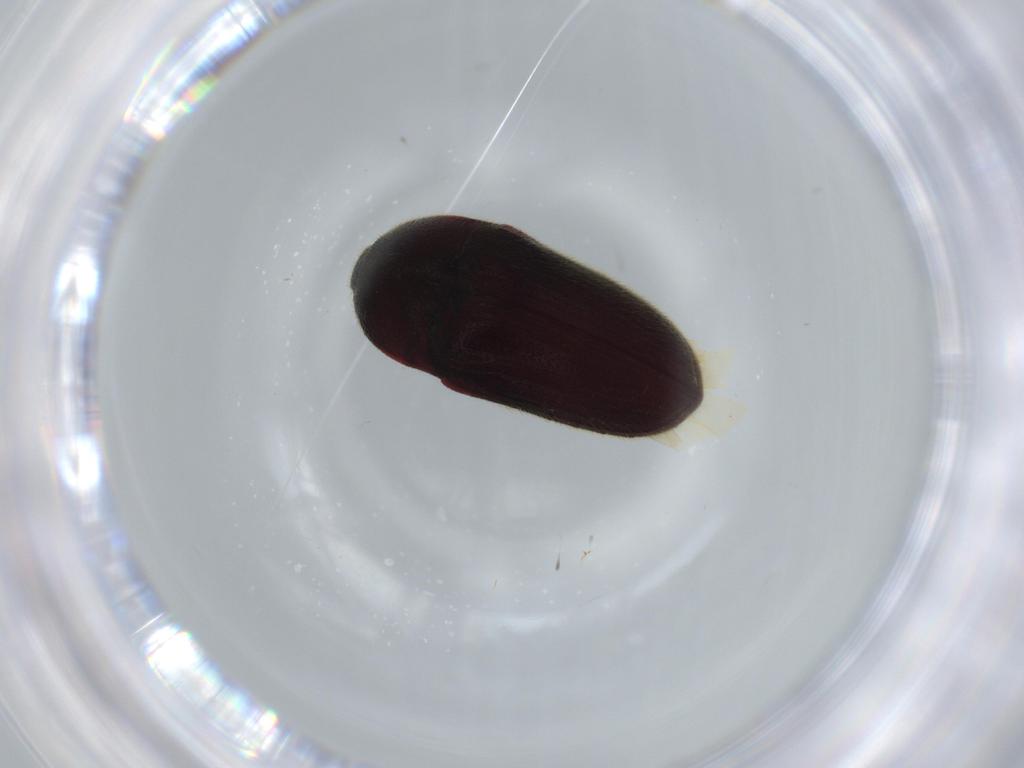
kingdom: Animalia
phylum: Arthropoda
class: Insecta
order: Coleoptera
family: Throscidae
